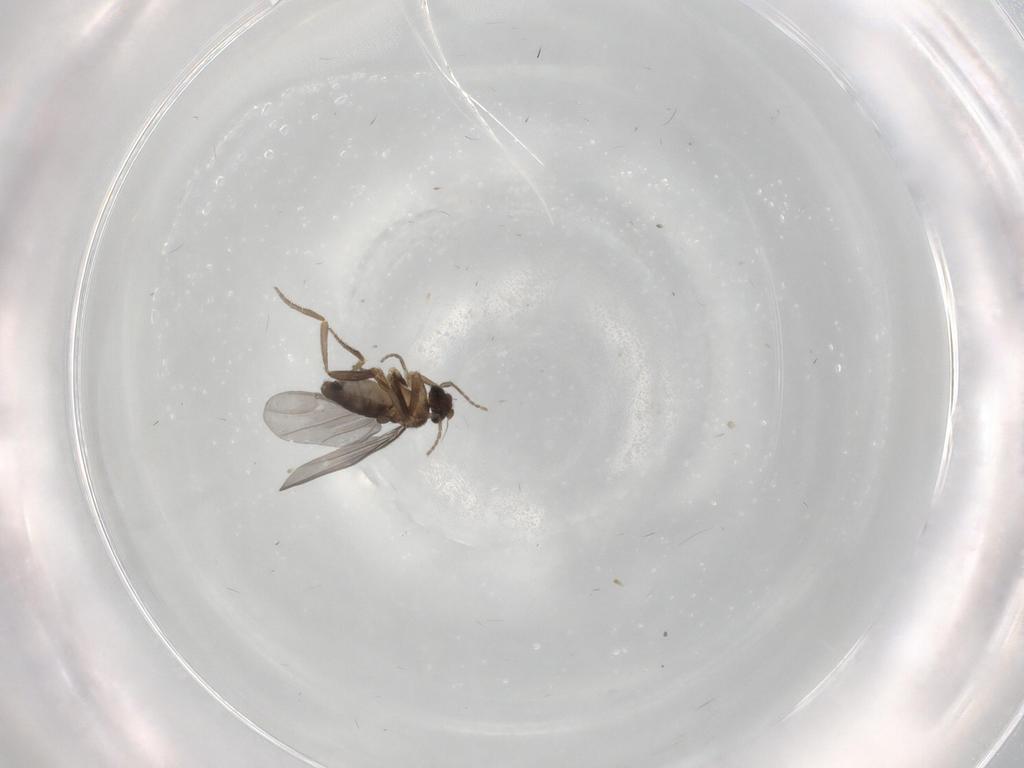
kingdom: Animalia
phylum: Arthropoda
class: Insecta
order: Diptera
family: Phoridae
